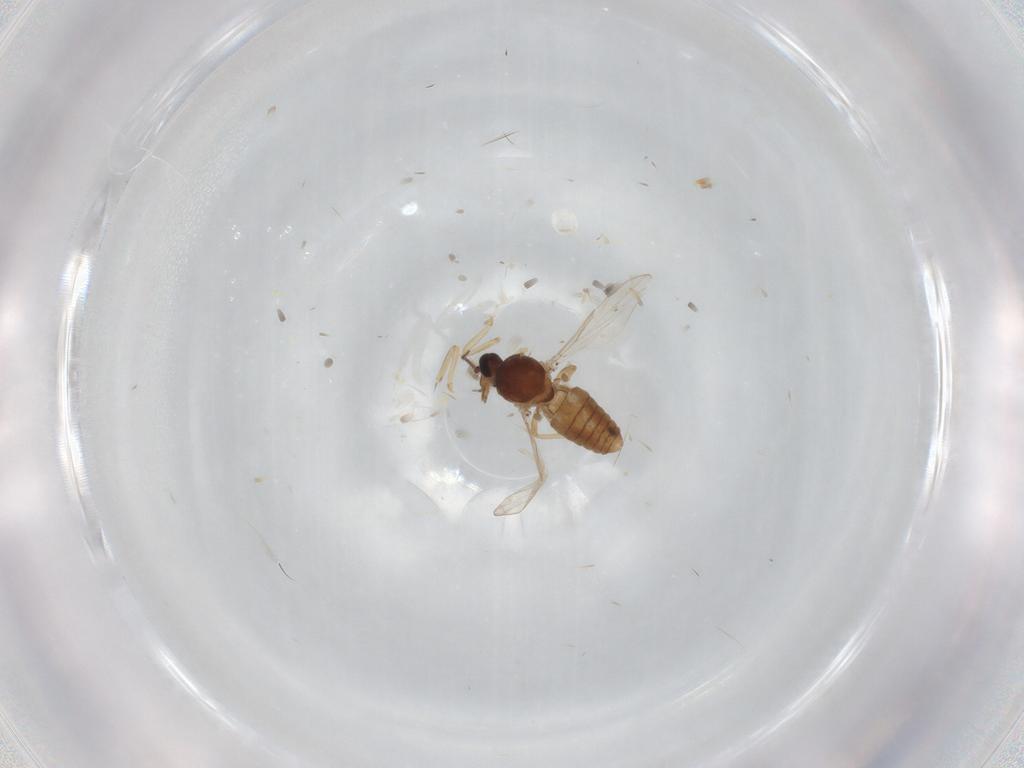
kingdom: Animalia
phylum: Arthropoda
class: Insecta
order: Diptera
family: Ceratopogonidae
